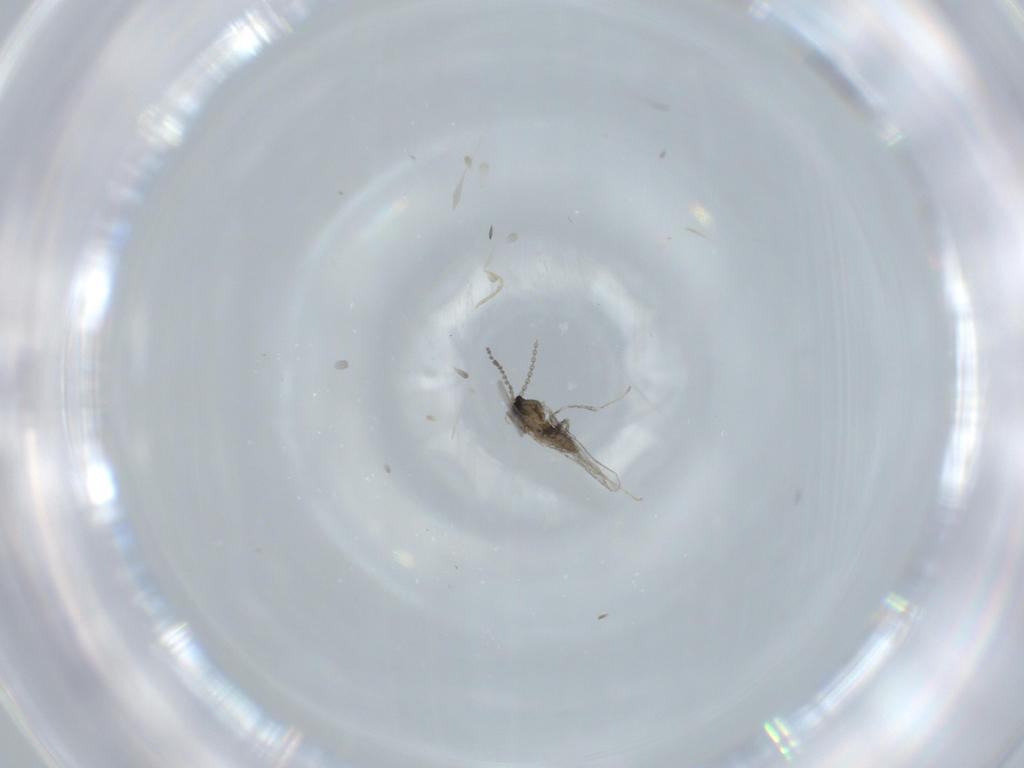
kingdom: Animalia
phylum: Arthropoda
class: Insecta
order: Diptera
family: Cecidomyiidae
